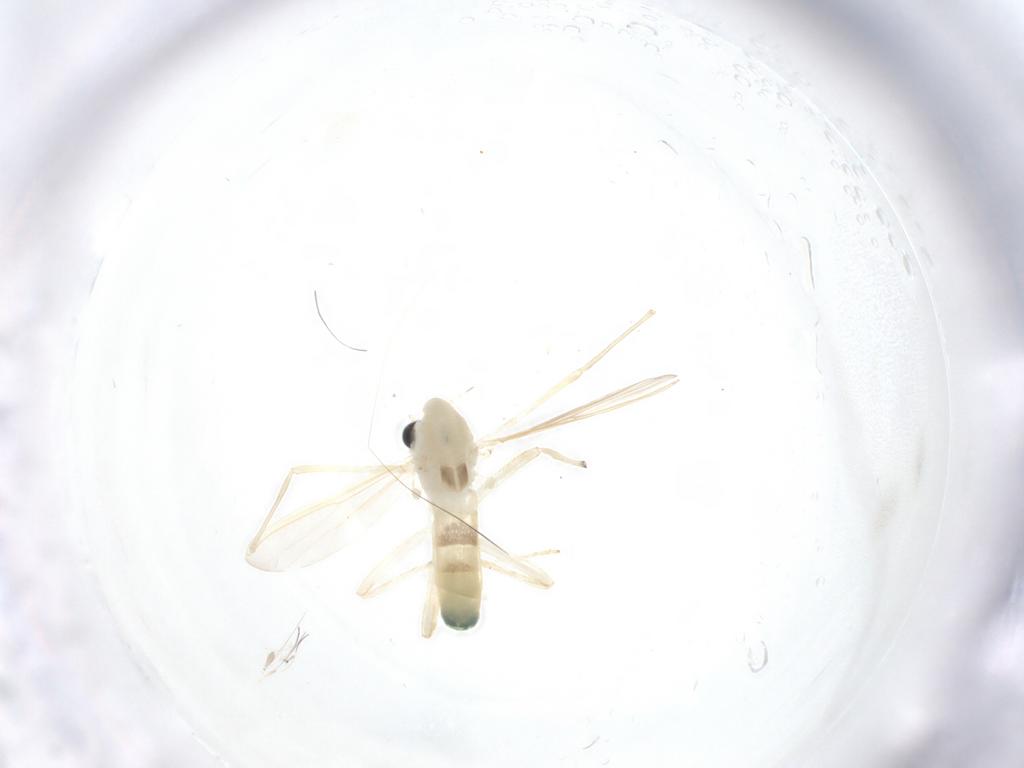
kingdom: Animalia
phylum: Arthropoda
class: Insecta
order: Diptera
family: Chironomidae
